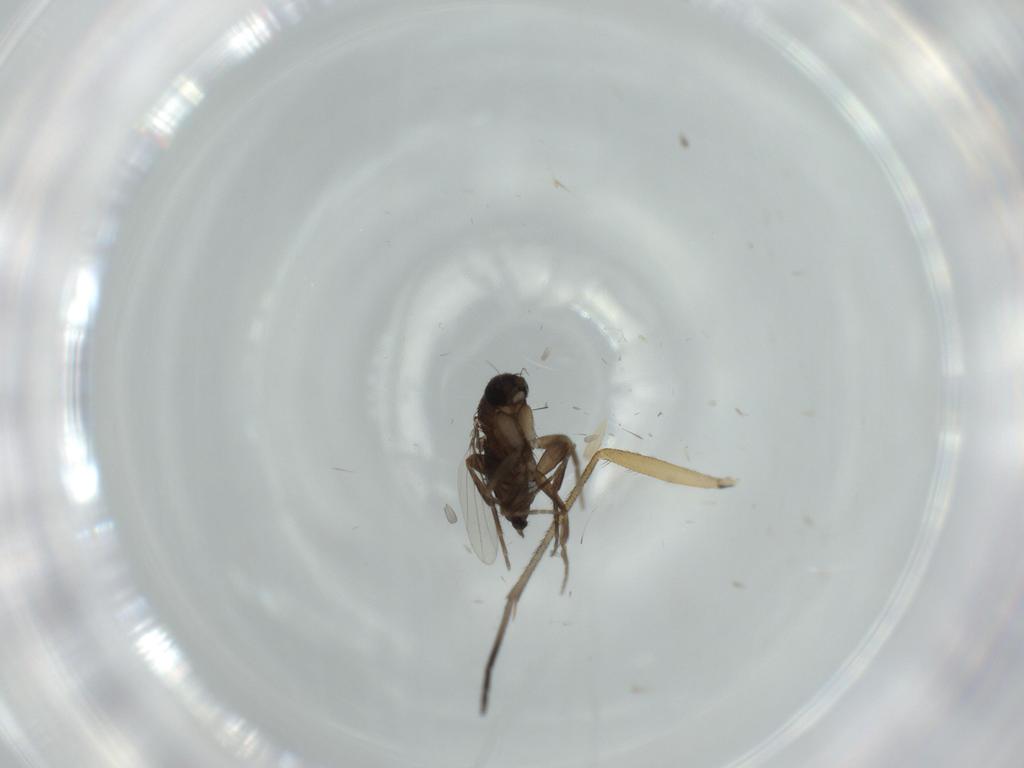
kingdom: Animalia
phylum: Arthropoda
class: Insecta
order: Diptera
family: Phoridae
